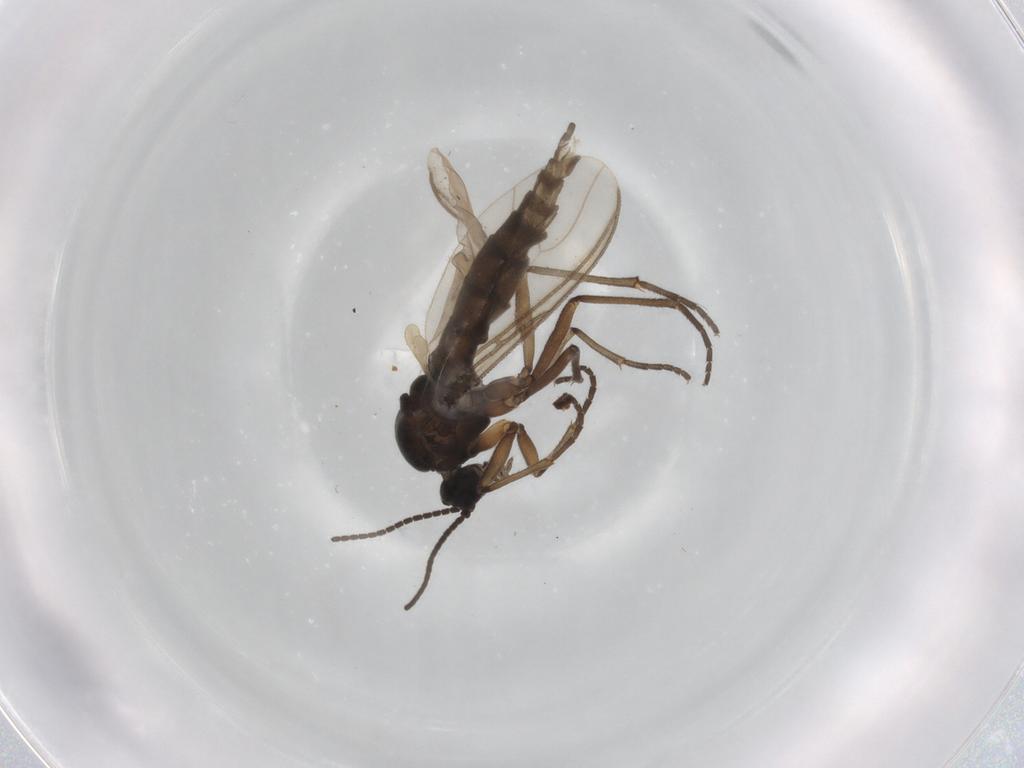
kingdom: Animalia
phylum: Arthropoda
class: Insecta
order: Diptera
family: Sciaridae
